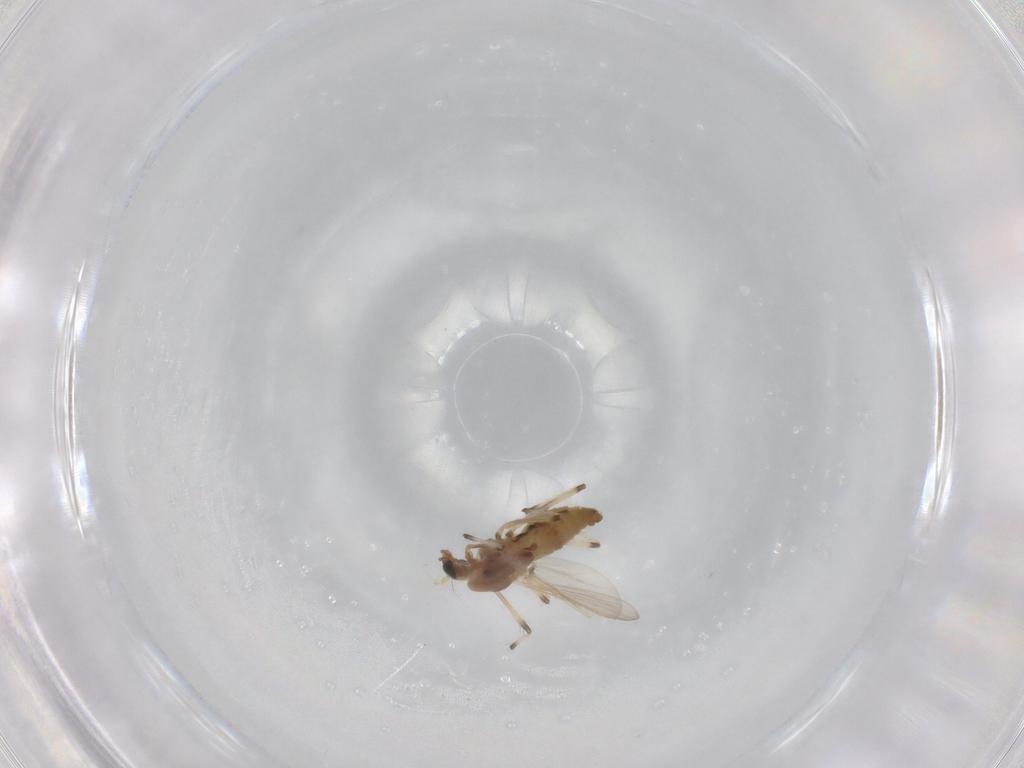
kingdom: Animalia
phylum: Arthropoda
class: Insecta
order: Diptera
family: Chironomidae
